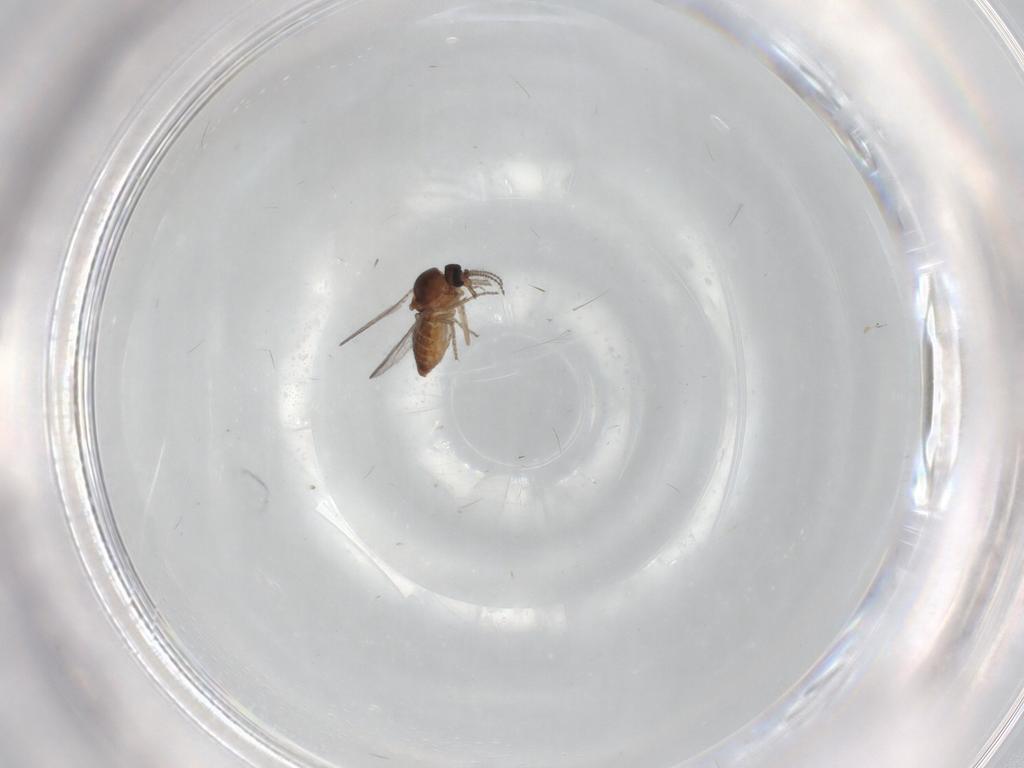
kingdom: Animalia
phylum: Arthropoda
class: Insecta
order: Diptera
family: Ceratopogonidae
